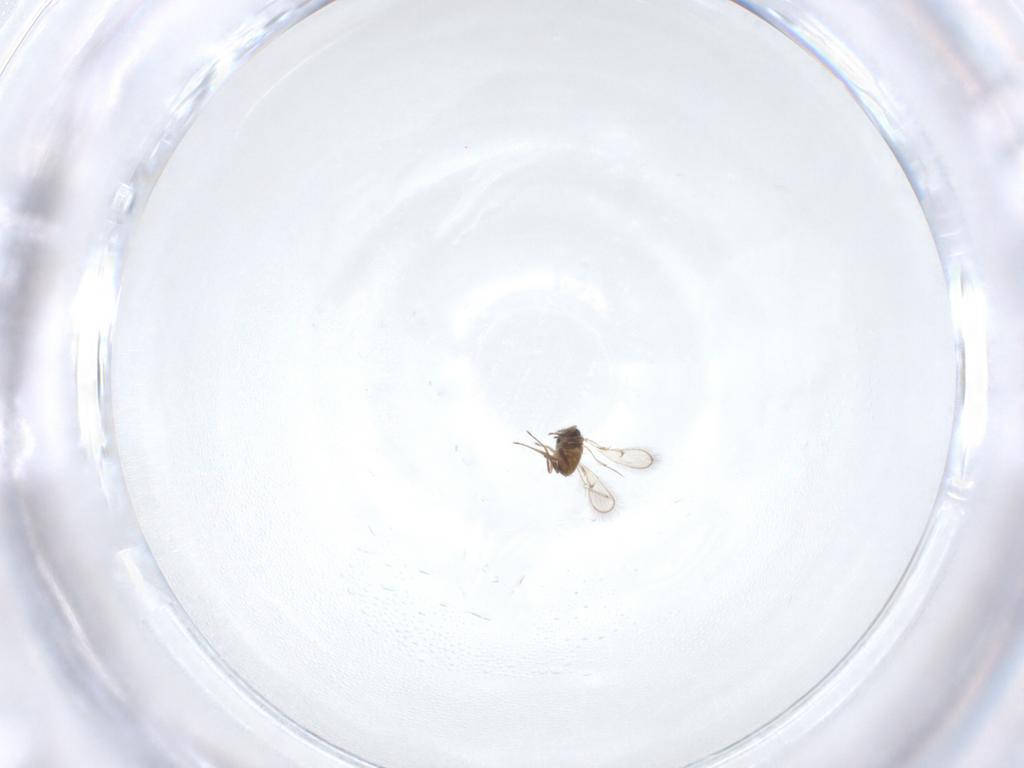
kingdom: Animalia
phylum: Arthropoda
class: Insecta
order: Hymenoptera
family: Trichogrammatidae
